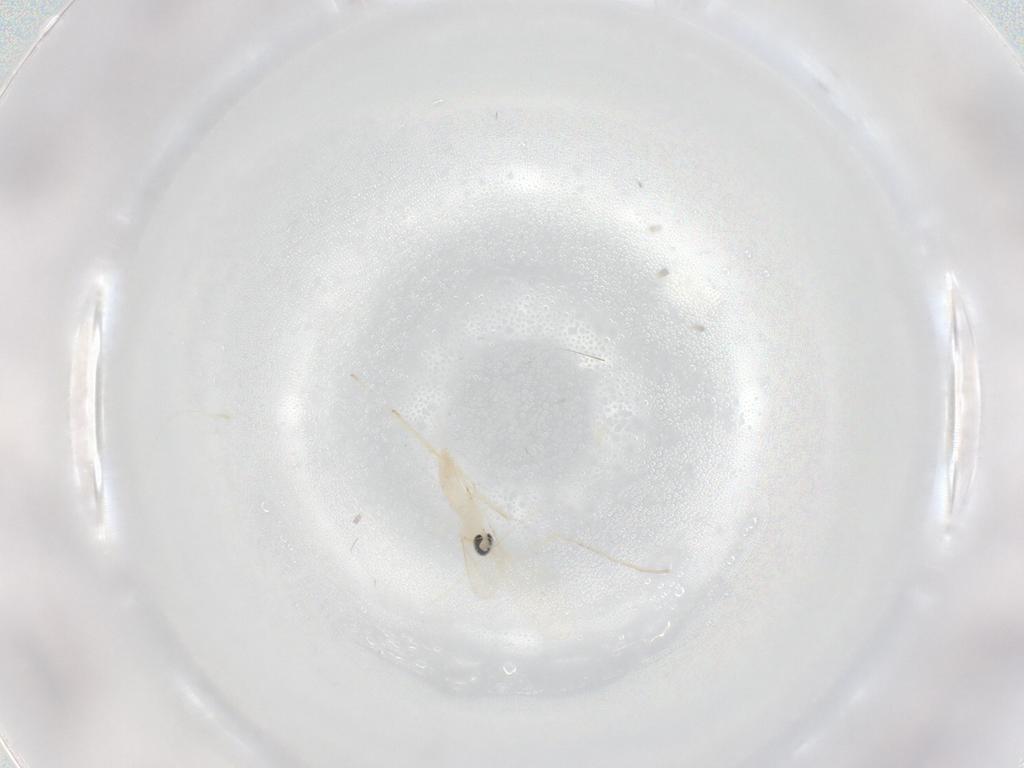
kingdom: Animalia
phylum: Arthropoda
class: Insecta
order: Diptera
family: Cecidomyiidae
